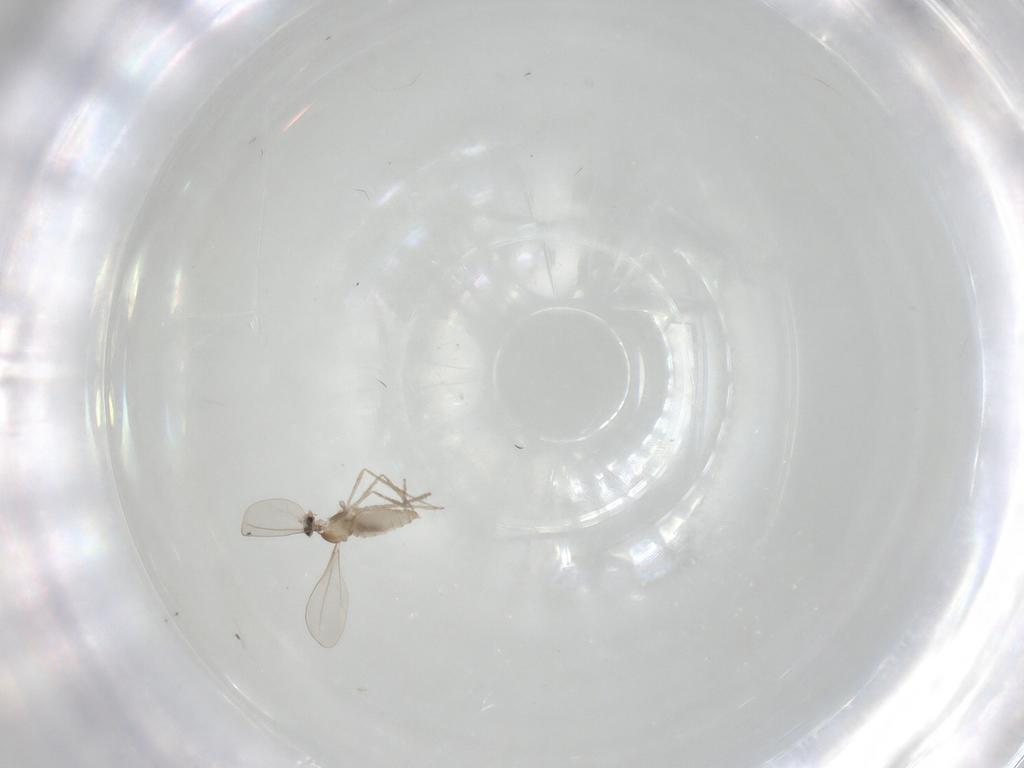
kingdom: Animalia
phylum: Arthropoda
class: Insecta
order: Diptera
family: Cecidomyiidae
